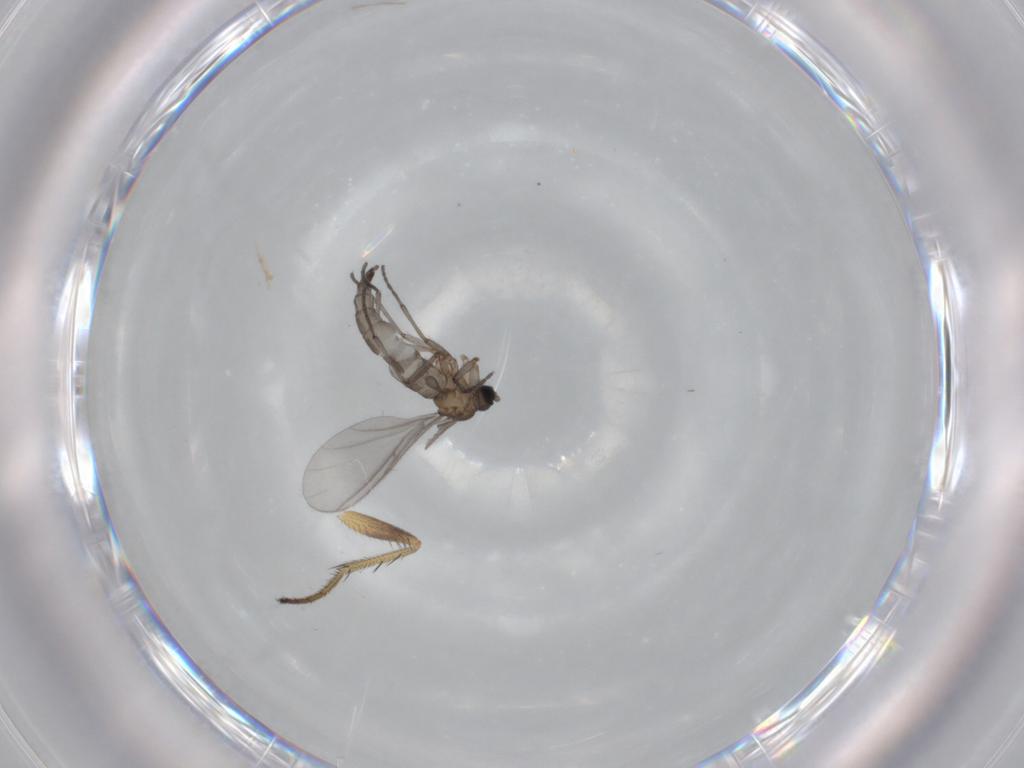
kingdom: Animalia
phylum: Arthropoda
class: Insecta
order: Diptera
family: Sciaridae
